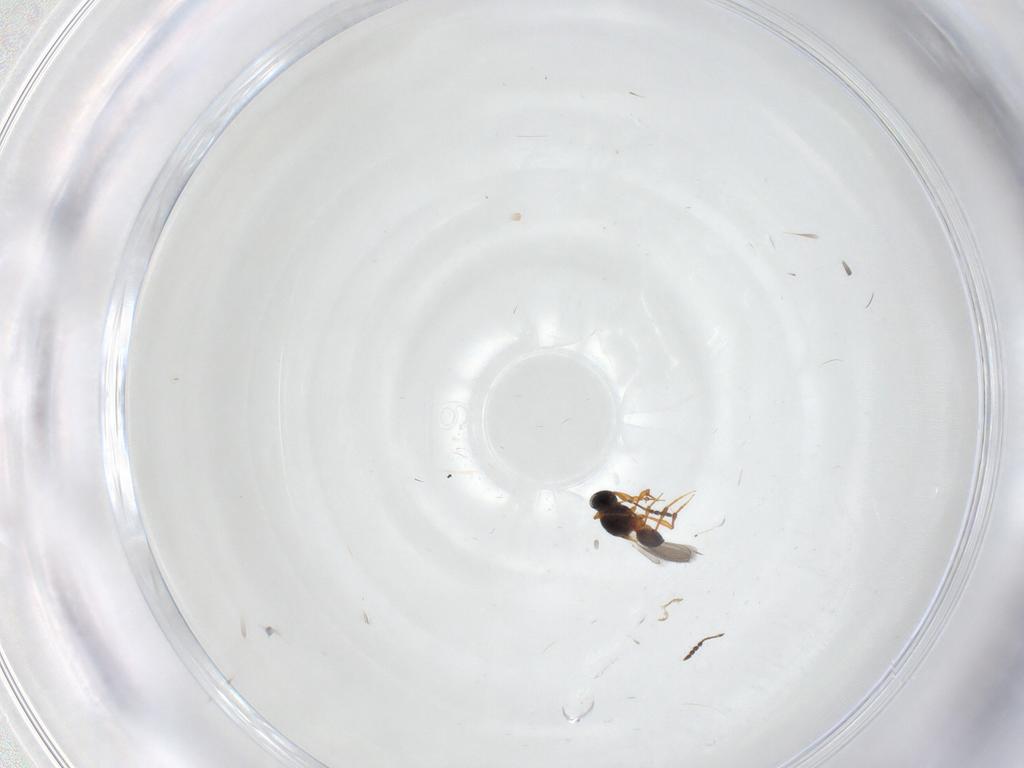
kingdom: Animalia
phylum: Arthropoda
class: Insecta
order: Hymenoptera
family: Platygastridae
